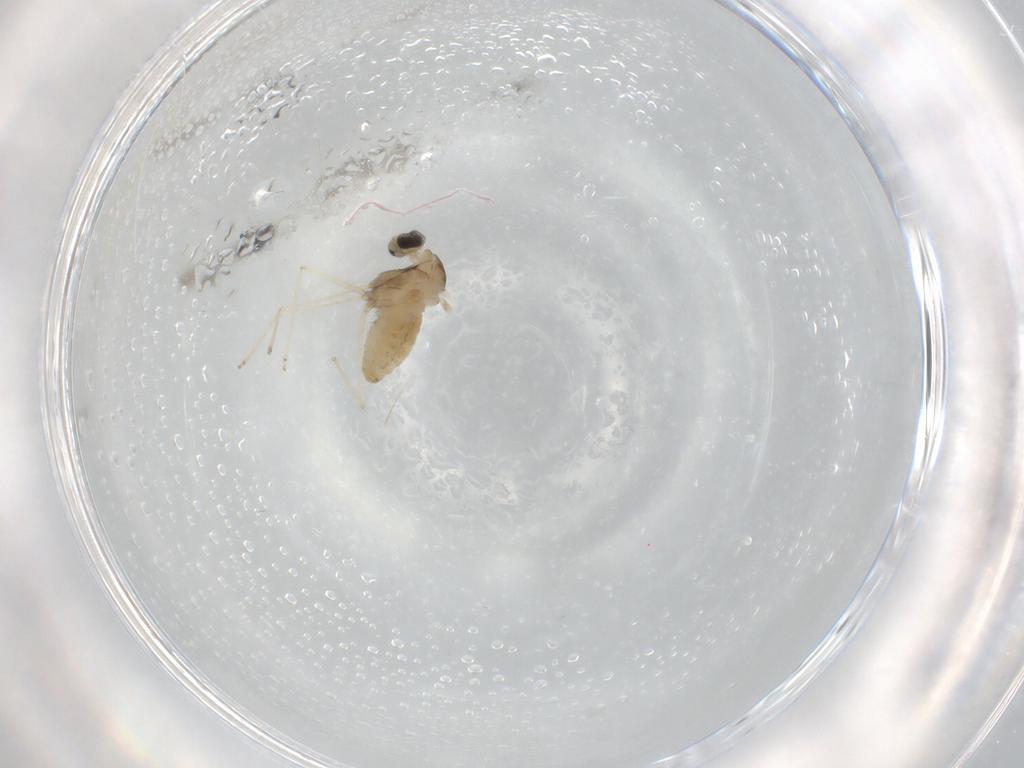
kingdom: Animalia
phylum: Arthropoda
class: Insecta
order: Diptera
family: Cecidomyiidae
